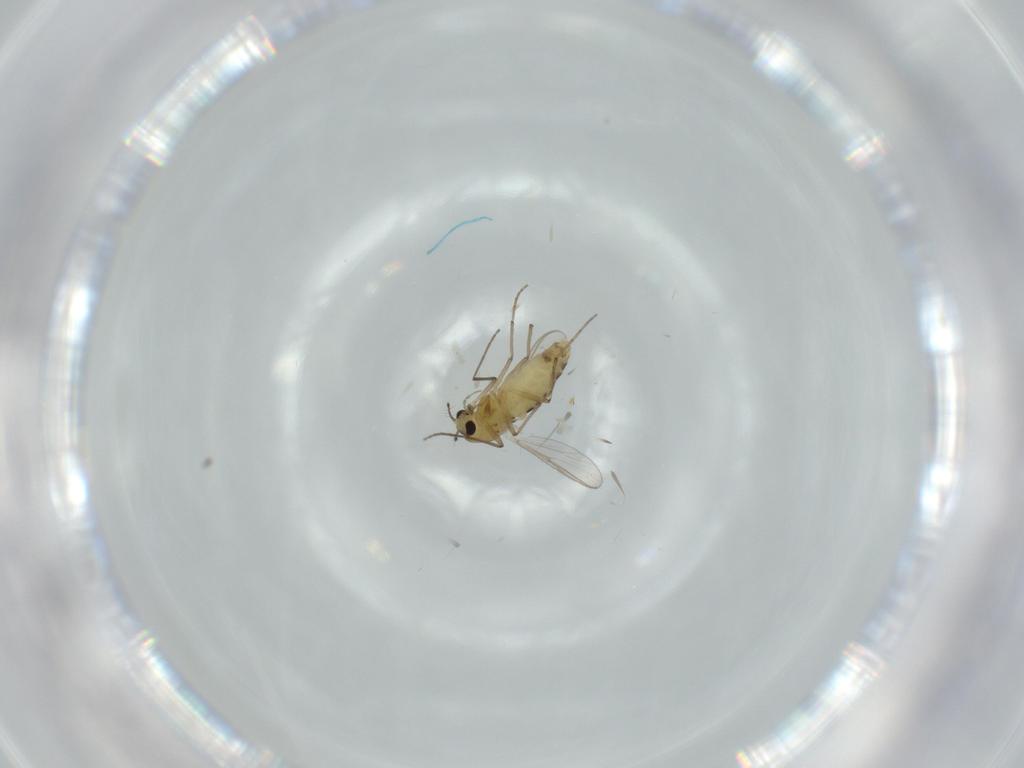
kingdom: Animalia
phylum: Arthropoda
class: Insecta
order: Diptera
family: Chironomidae
